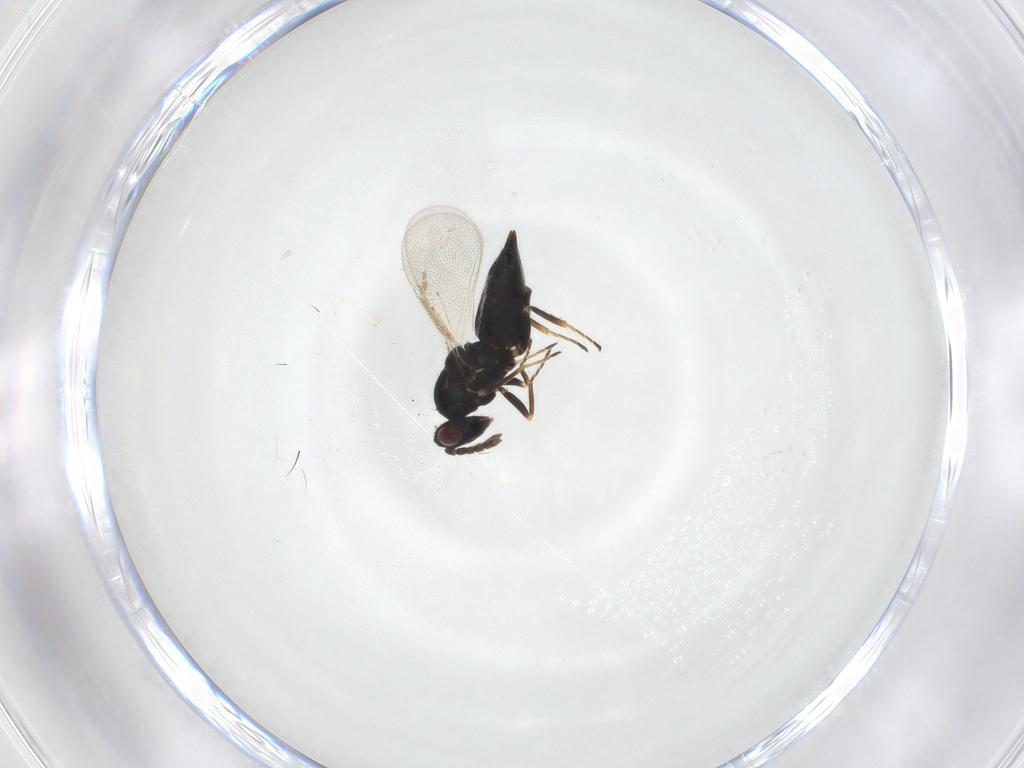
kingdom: Animalia
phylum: Arthropoda
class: Insecta
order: Hymenoptera
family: Eulophidae
